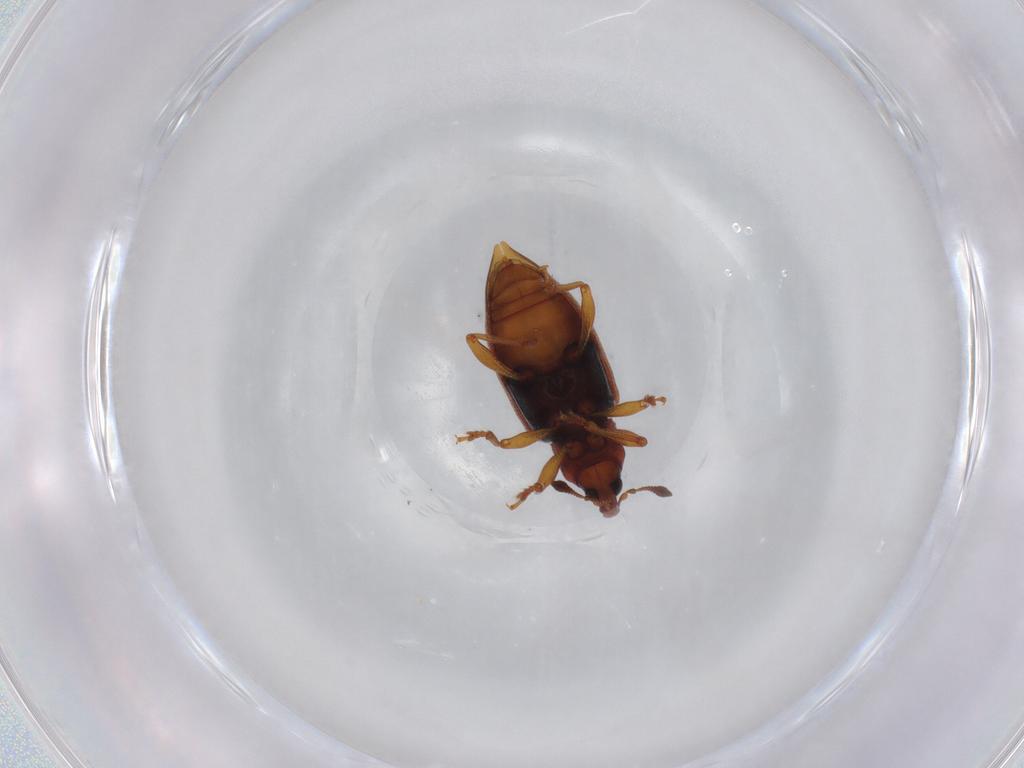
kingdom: Animalia
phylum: Arthropoda
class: Insecta
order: Coleoptera
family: Curculionidae
